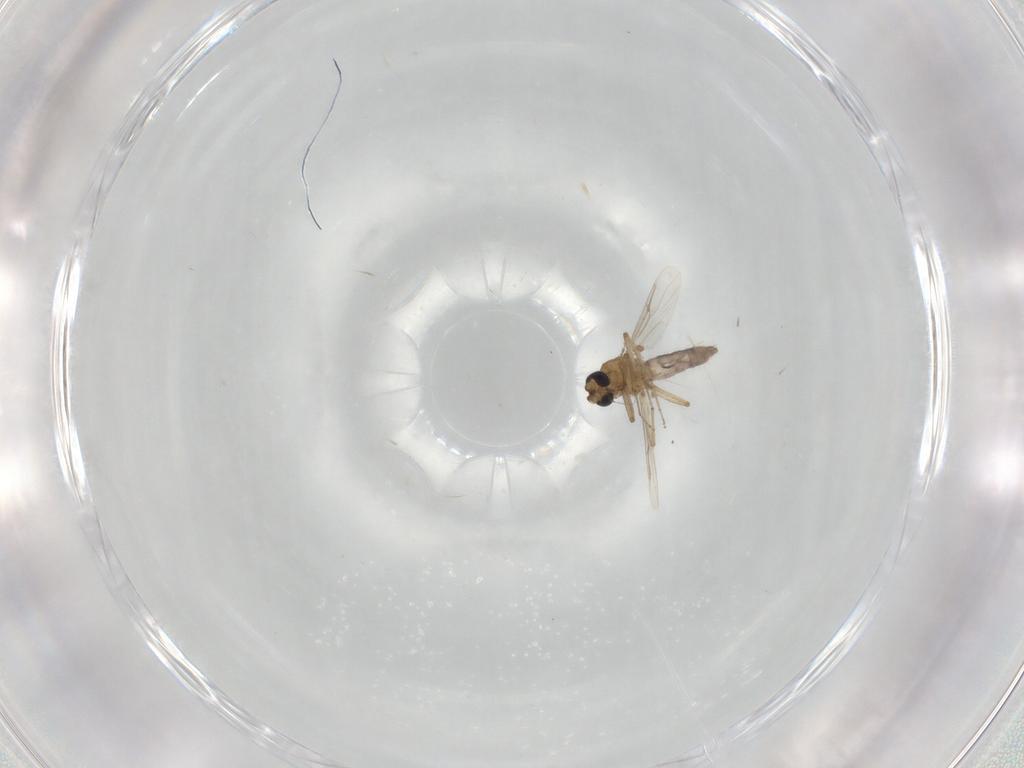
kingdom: Animalia
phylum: Arthropoda
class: Insecta
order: Diptera
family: Ceratopogonidae
